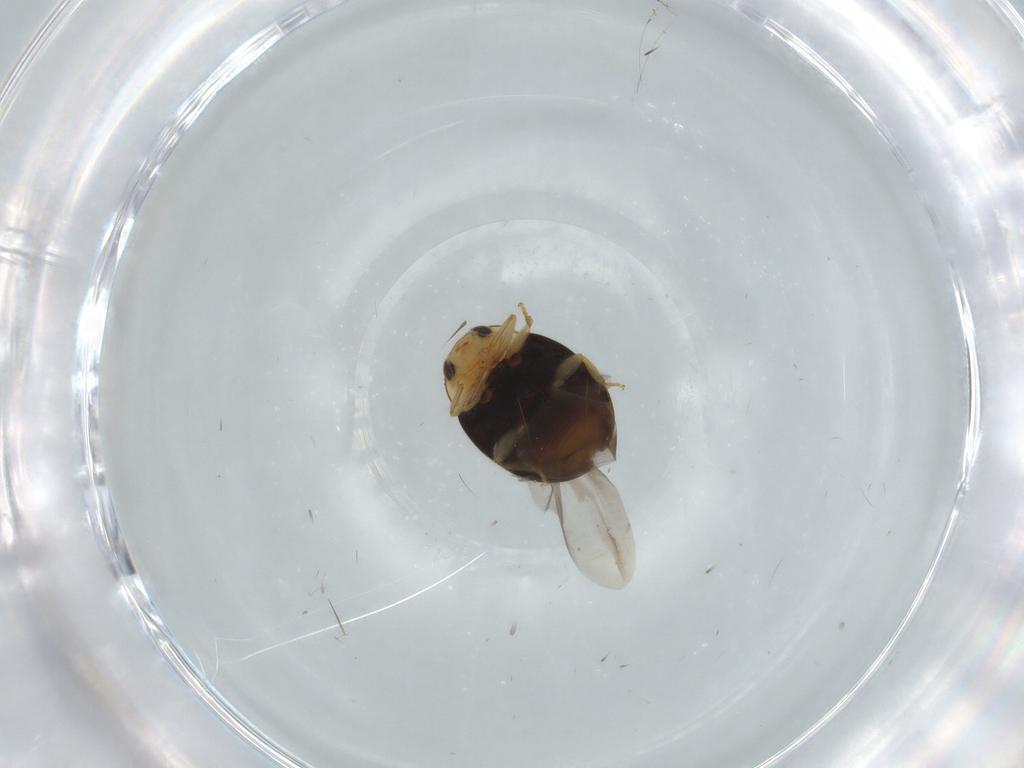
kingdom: Animalia
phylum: Arthropoda
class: Insecta
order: Coleoptera
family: Coccinellidae
